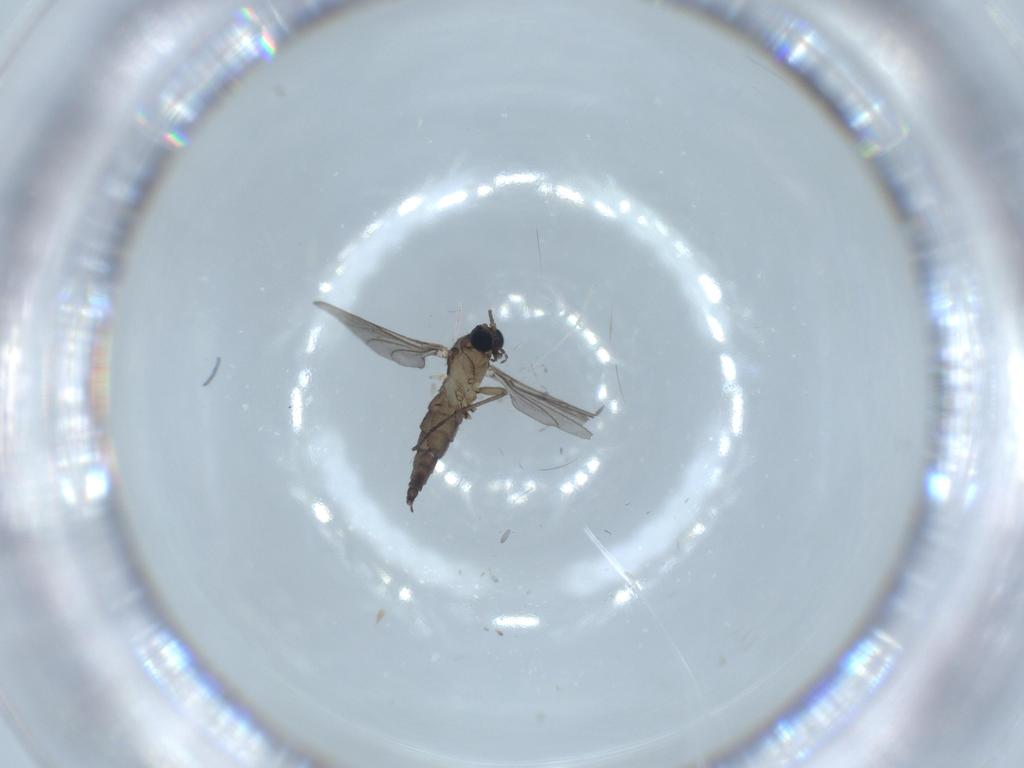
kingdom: Animalia
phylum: Arthropoda
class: Insecta
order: Diptera
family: Sciaridae
